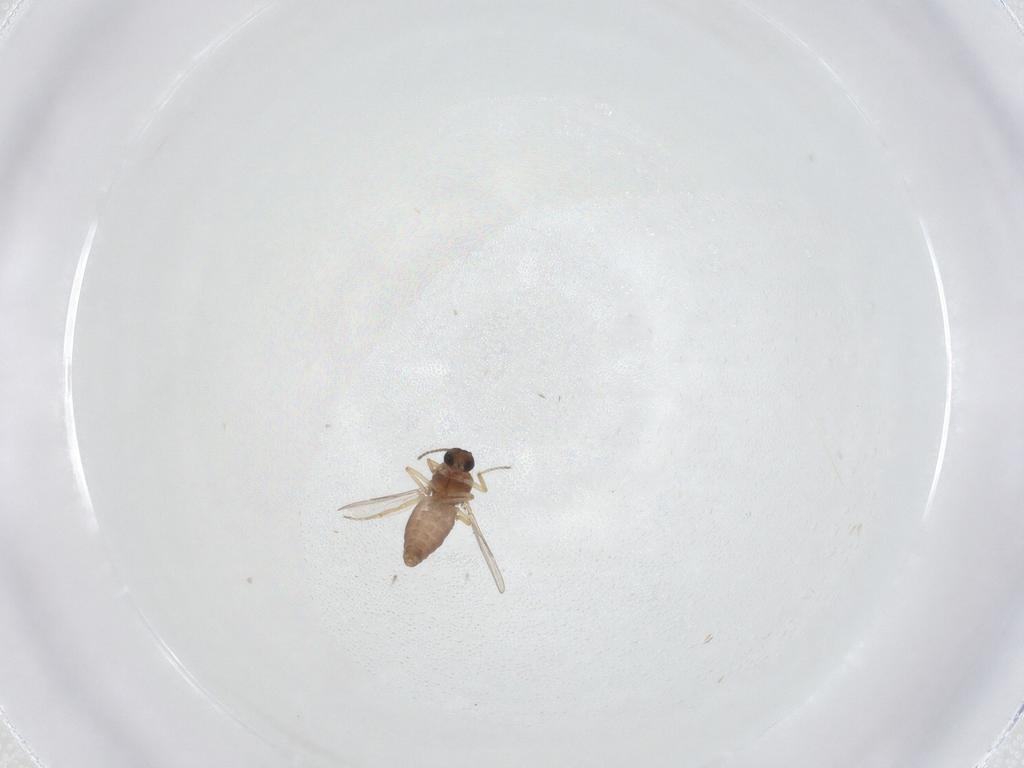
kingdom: Animalia
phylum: Arthropoda
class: Insecta
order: Diptera
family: Ceratopogonidae
